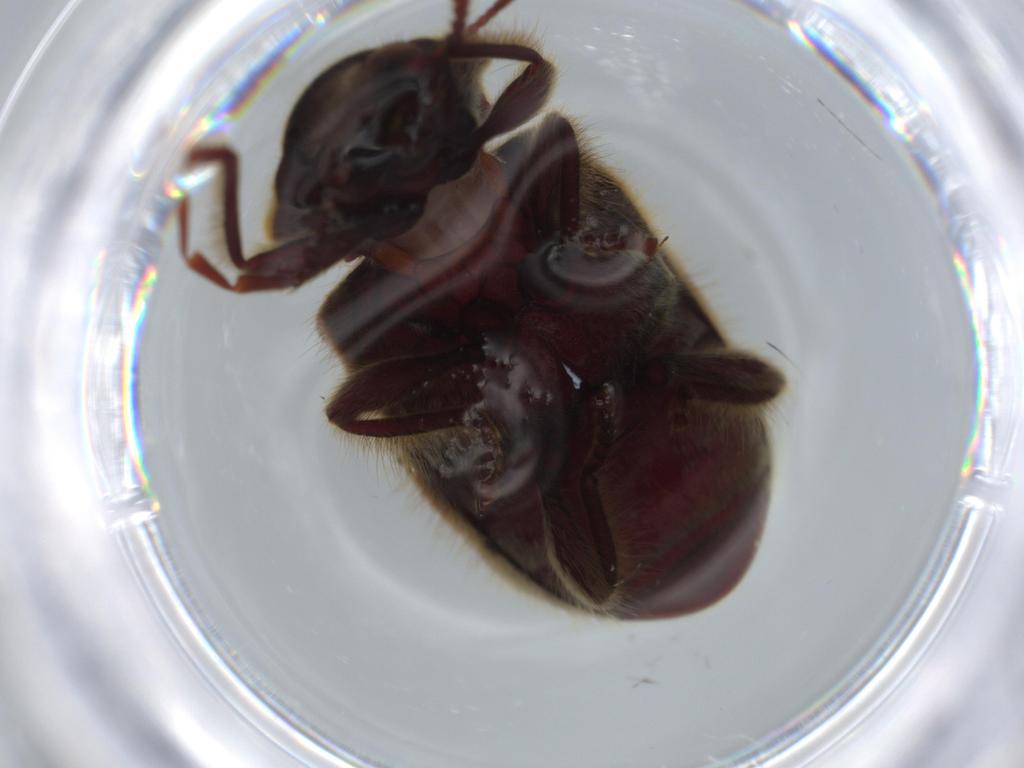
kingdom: Animalia
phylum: Arthropoda
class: Insecta
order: Coleoptera
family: Ptinidae
